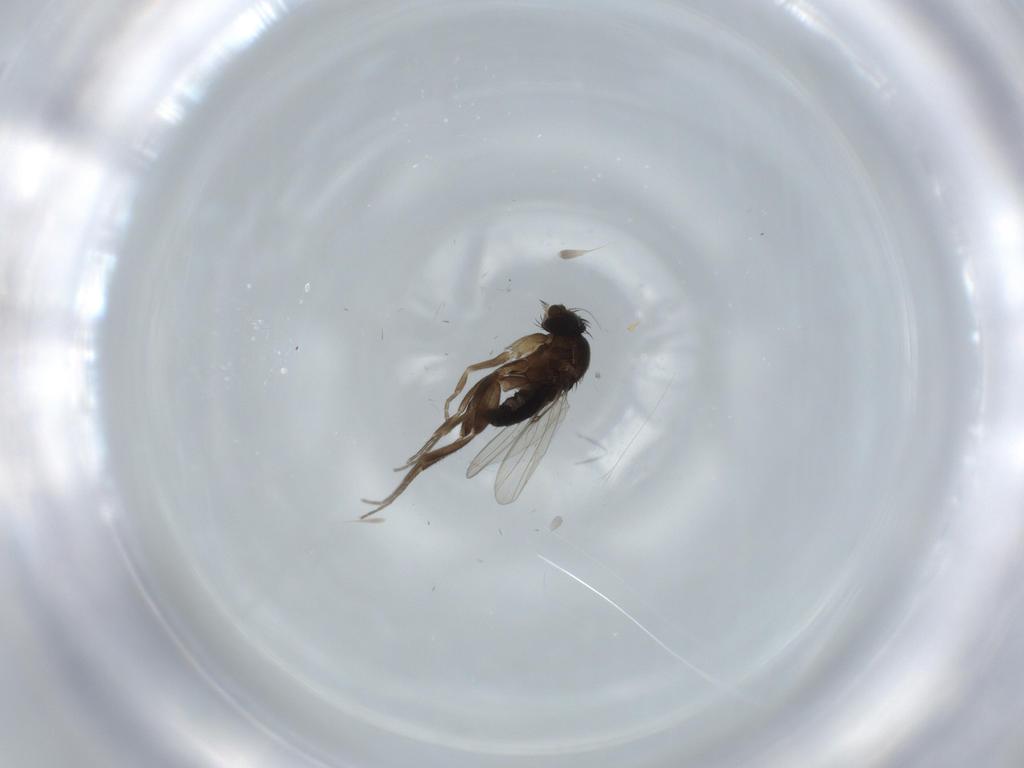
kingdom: Animalia
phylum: Arthropoda
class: Insecta
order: Diptera
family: Phoridae
